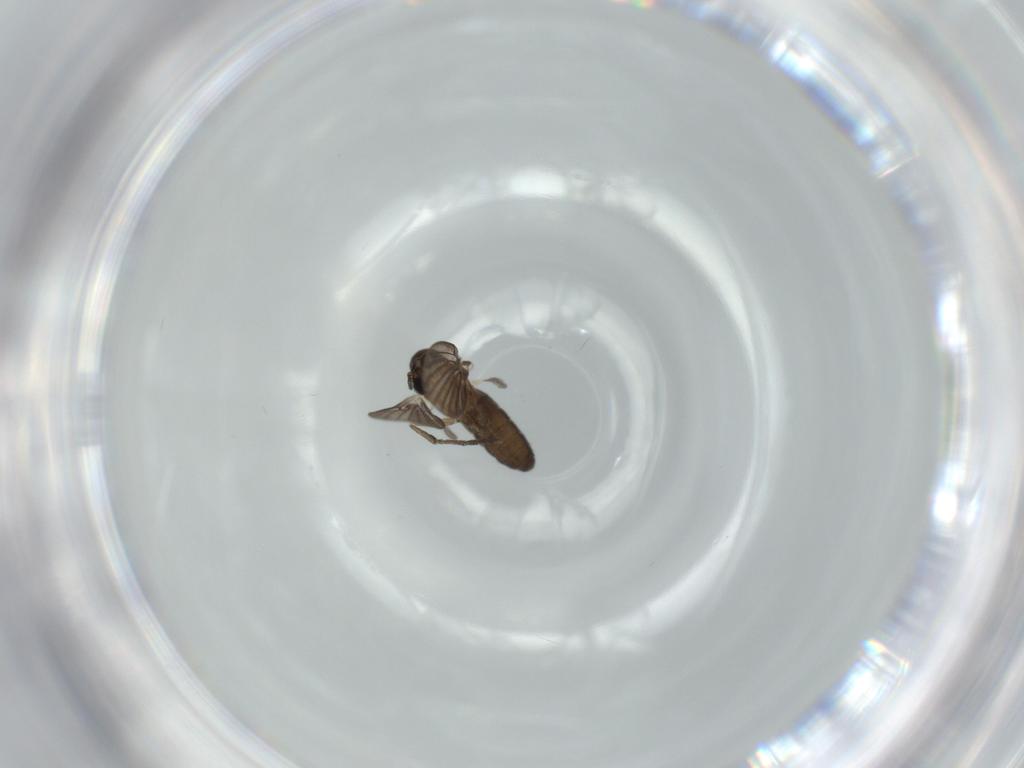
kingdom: Animalia
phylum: Arthropoda
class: Insecta
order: Diptera
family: Psychodidae
